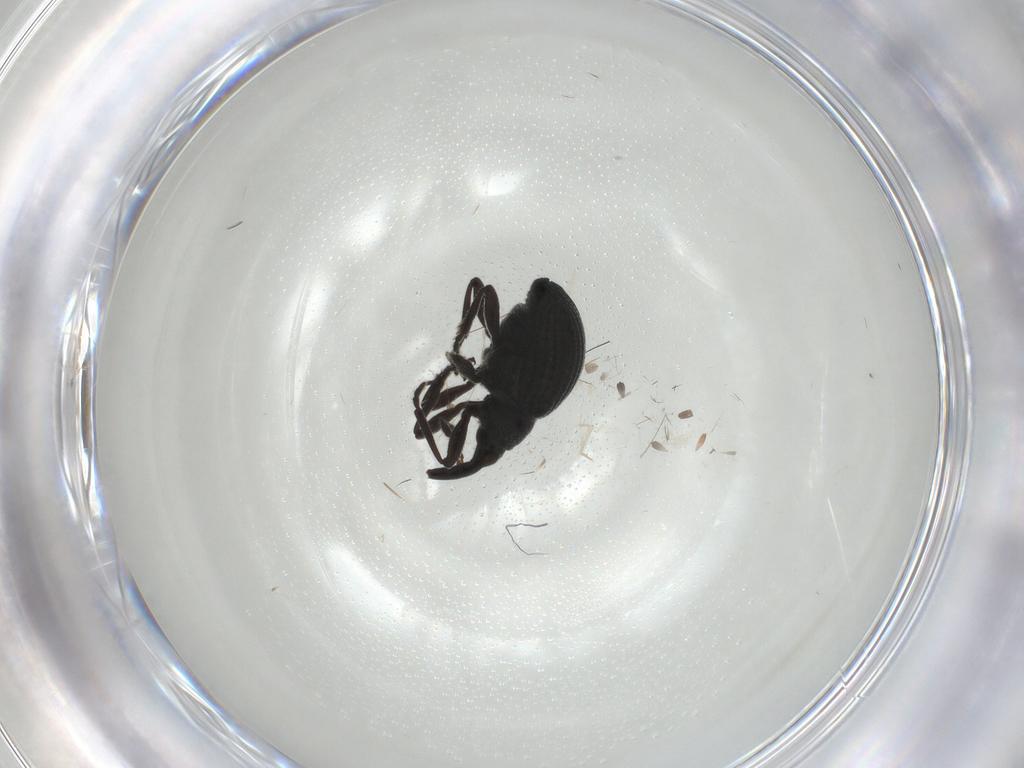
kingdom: Animalia
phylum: Arthropoda
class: Insecta
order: Coleoptera
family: Brentidae
